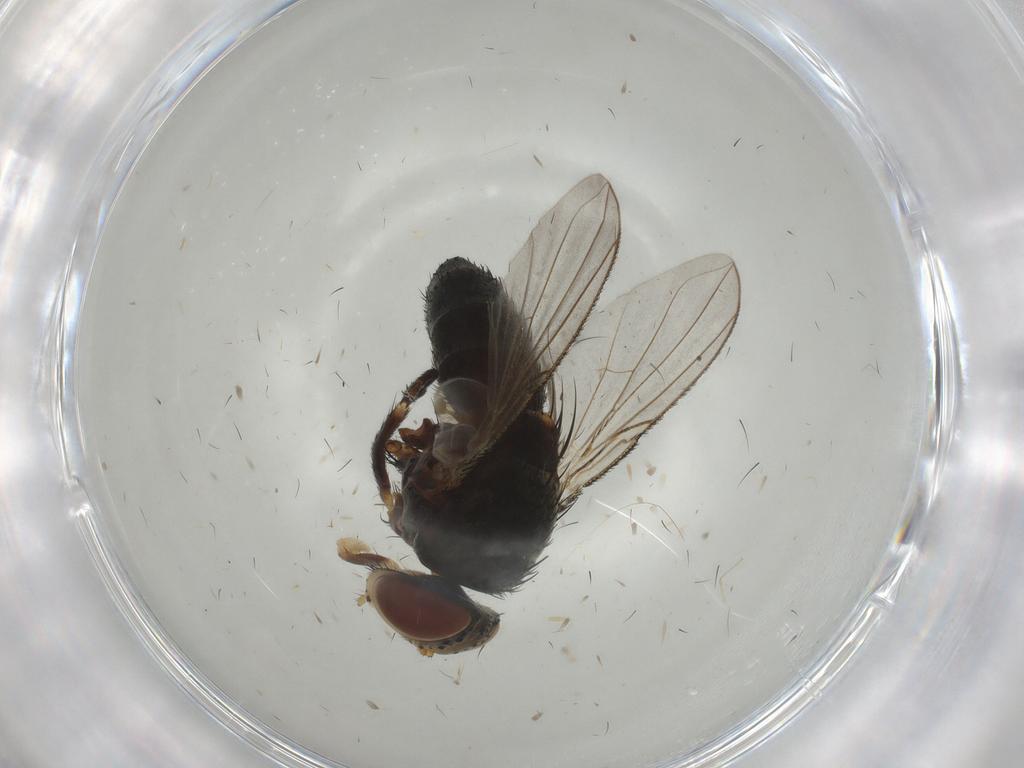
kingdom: Animalia
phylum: Arthropoda
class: Insecta
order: Diptera
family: Tachinidae
